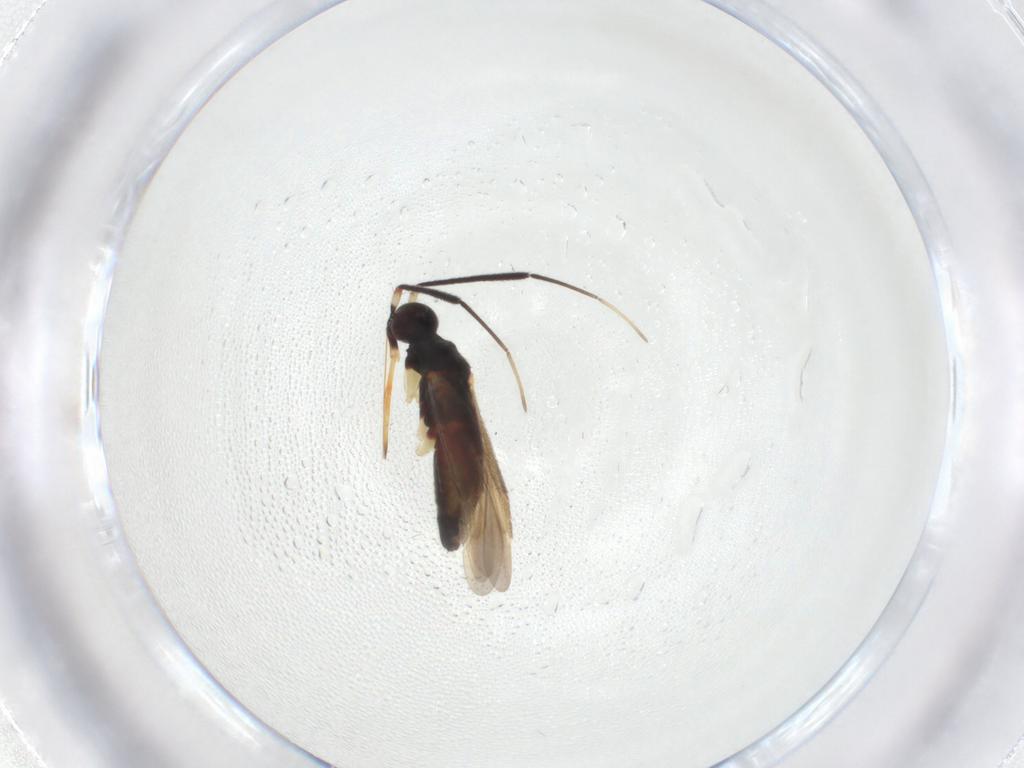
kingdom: Animalia
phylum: Arthropoda
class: Insecta
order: Hemiptera
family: Miridae
